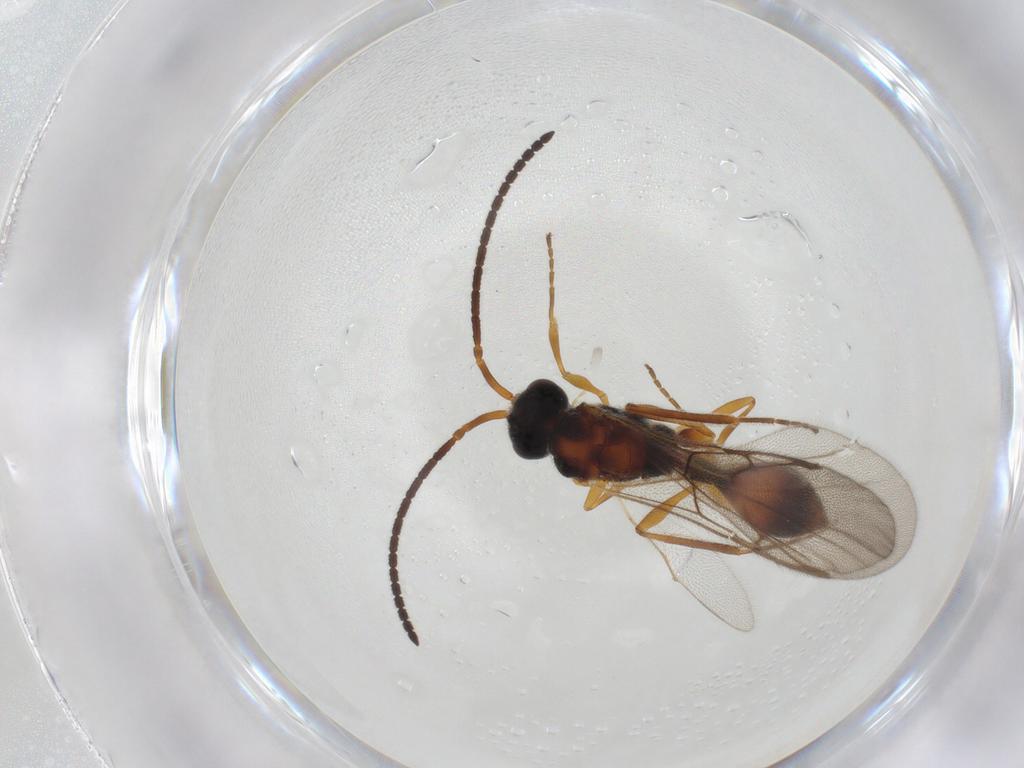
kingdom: Animalia
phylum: Arthropoda
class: Insecta
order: Hymenoptera
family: Diapriidae
